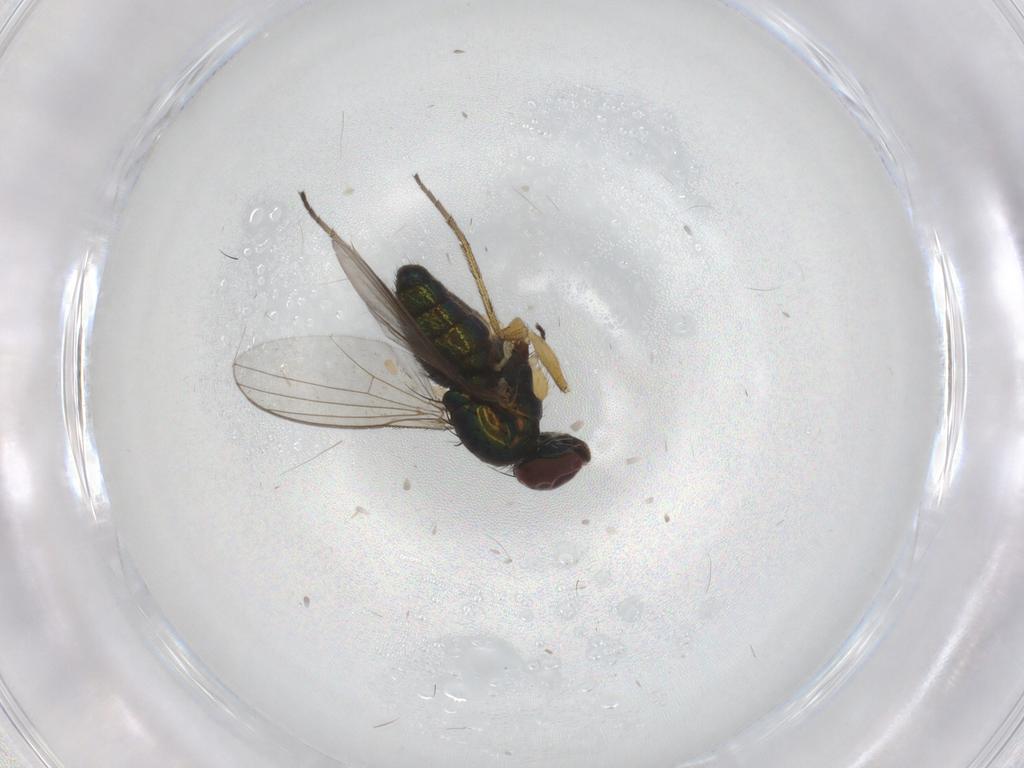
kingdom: Animalia
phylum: Arthropoda
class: Insecta
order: Diptera
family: Dolichopodidae
